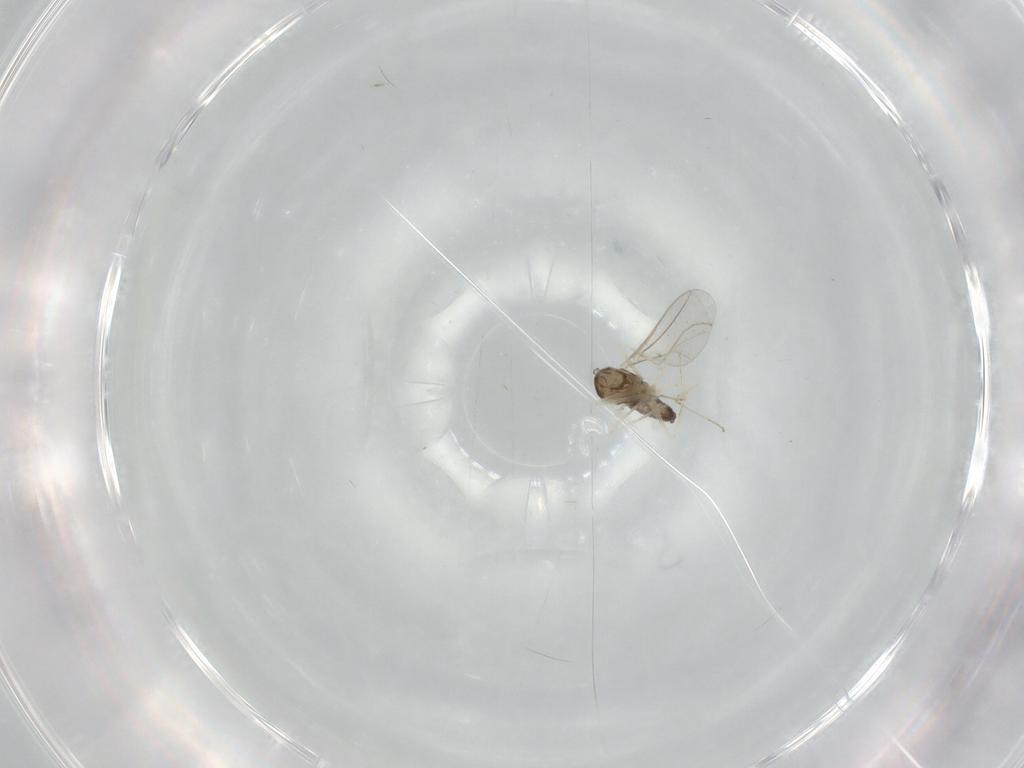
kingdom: Animalia
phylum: Arthropoda
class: Insecta
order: Diptera
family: Cecidomyiidae
